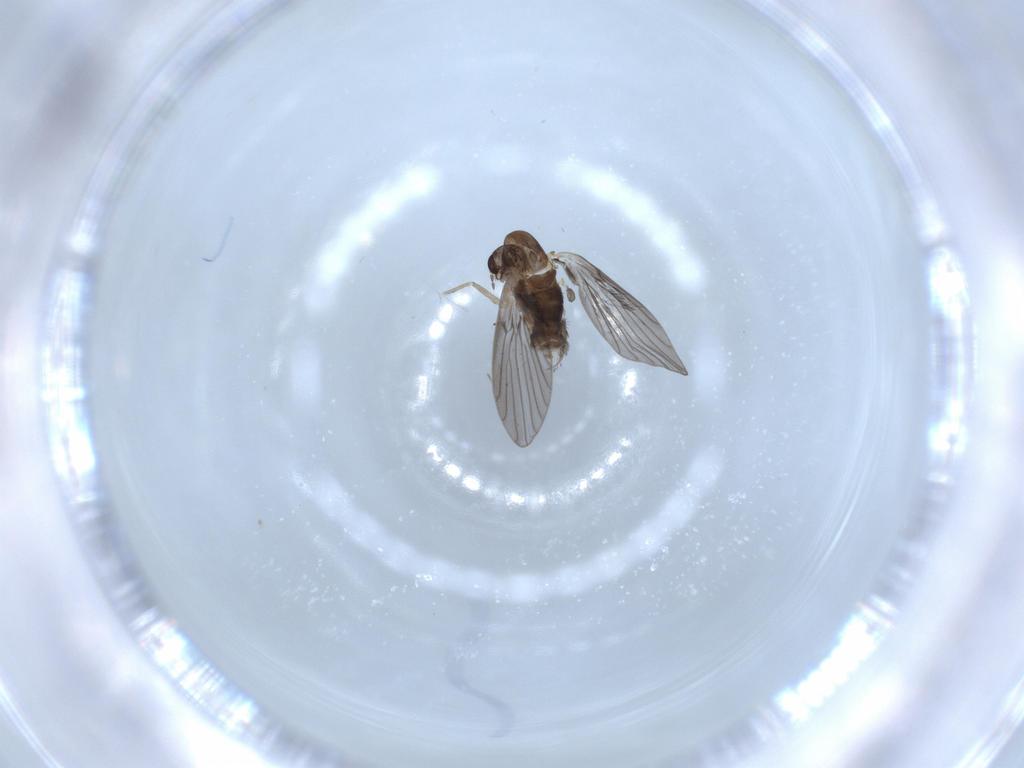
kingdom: Animalia
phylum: Arthropoda
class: Insecta
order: Diptera
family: Psychodidae
